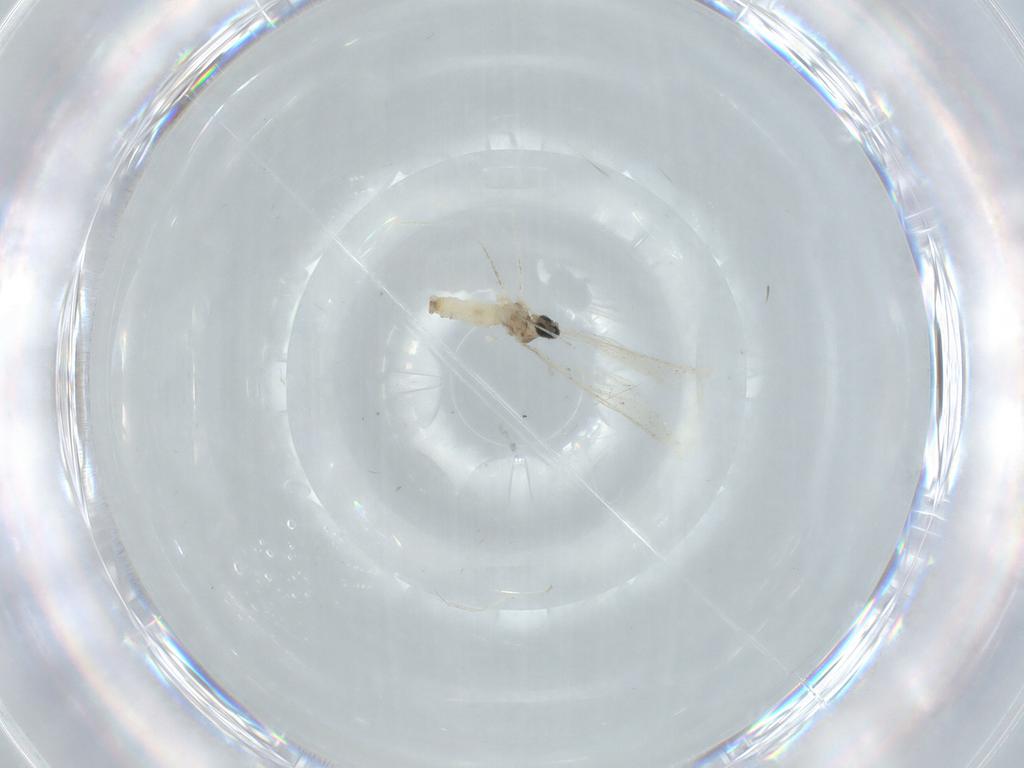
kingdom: Animalia
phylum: Arthropoda
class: Insecta
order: Diptera
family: Cecidomyiidae
